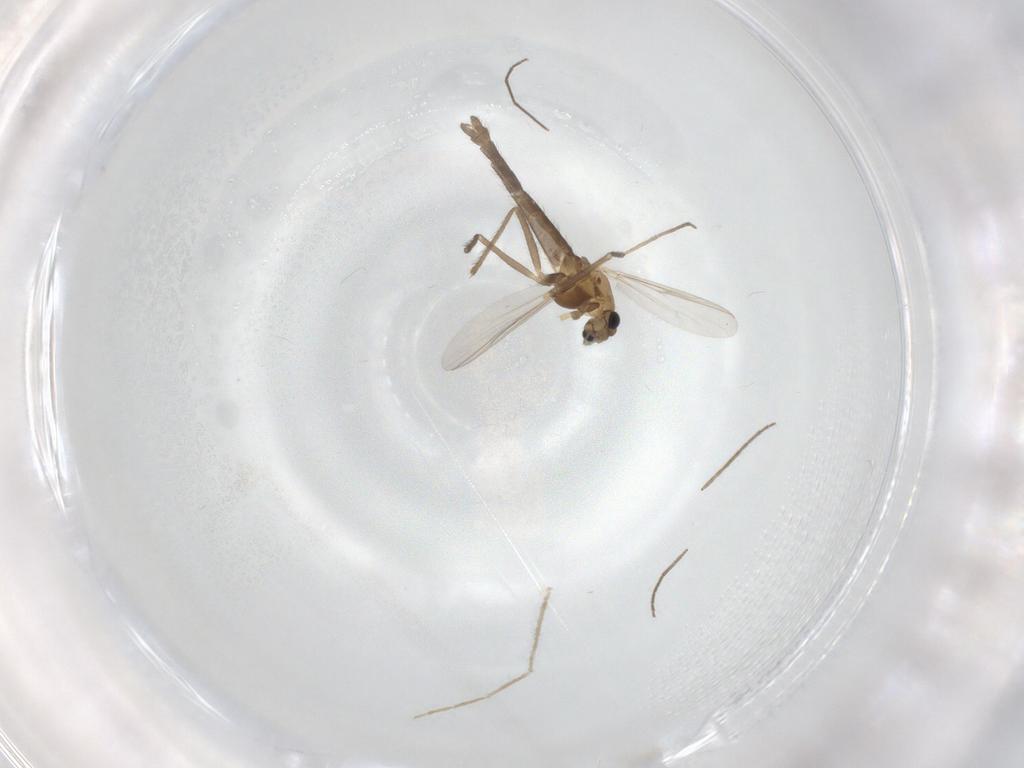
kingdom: Animalia
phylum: Arthropoda
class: Insecta
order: Diptera
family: Chironomidae
